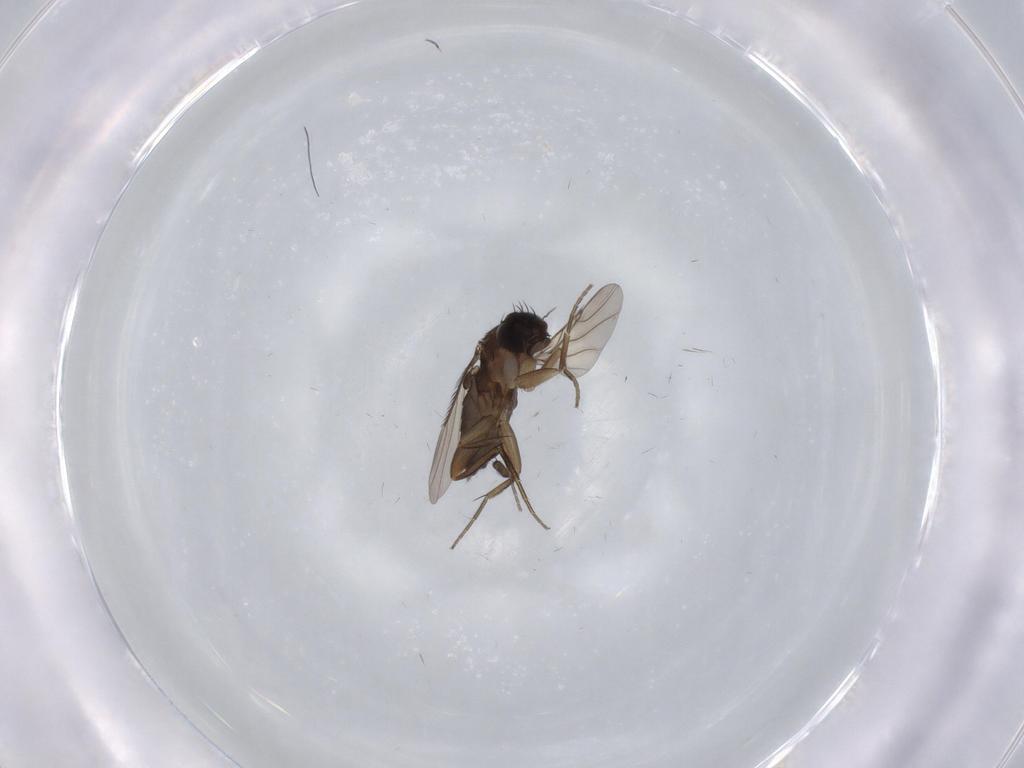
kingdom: Animalia
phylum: Arthropoda
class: Insecta
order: Diptera
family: Phoridae
